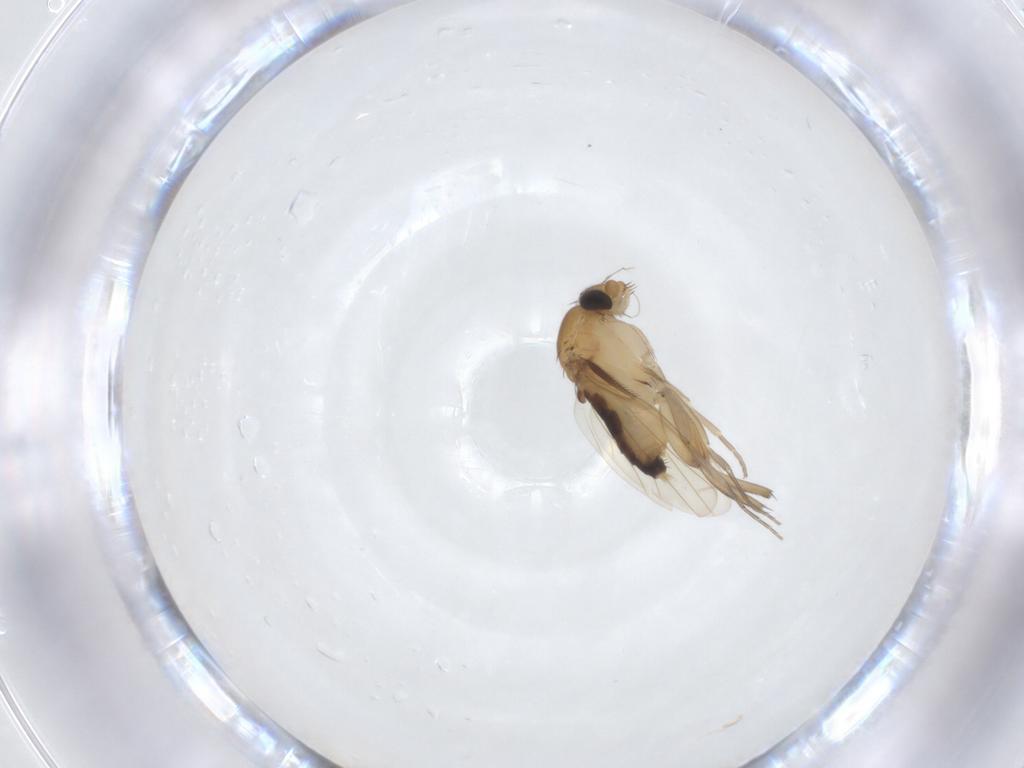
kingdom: Animalia
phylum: Arthropoda
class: Insecta
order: Diptera
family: Phoridae
